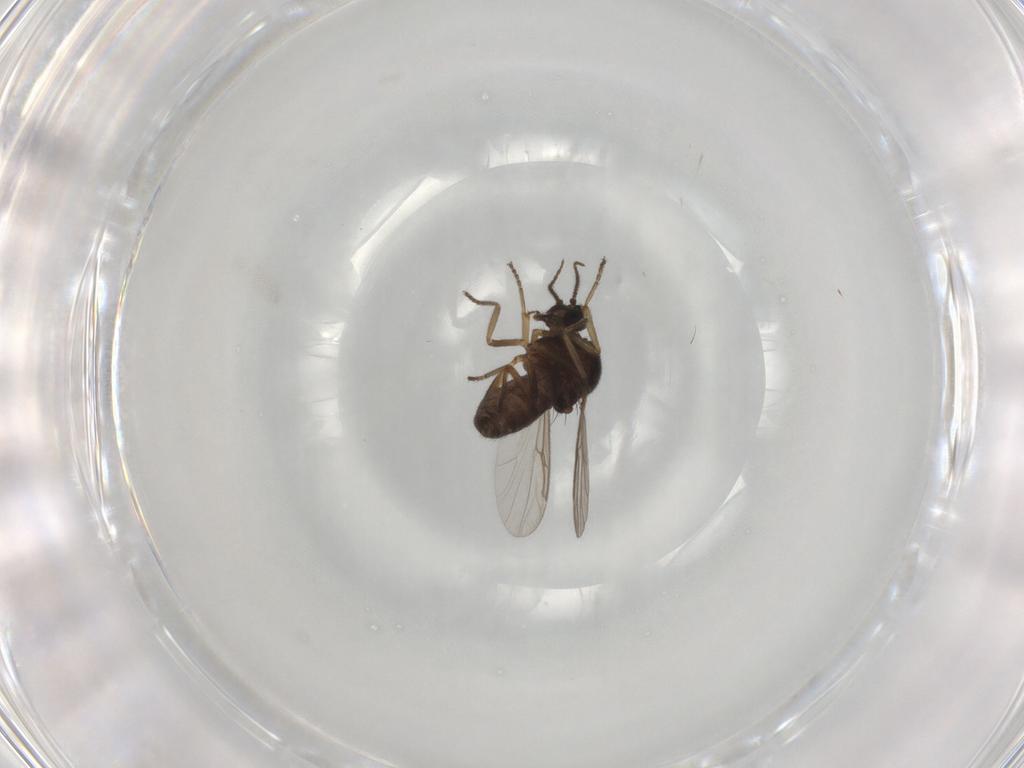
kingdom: Animalia
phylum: Arthropoda
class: Insecta
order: Diptera
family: Ceratopogonidae
